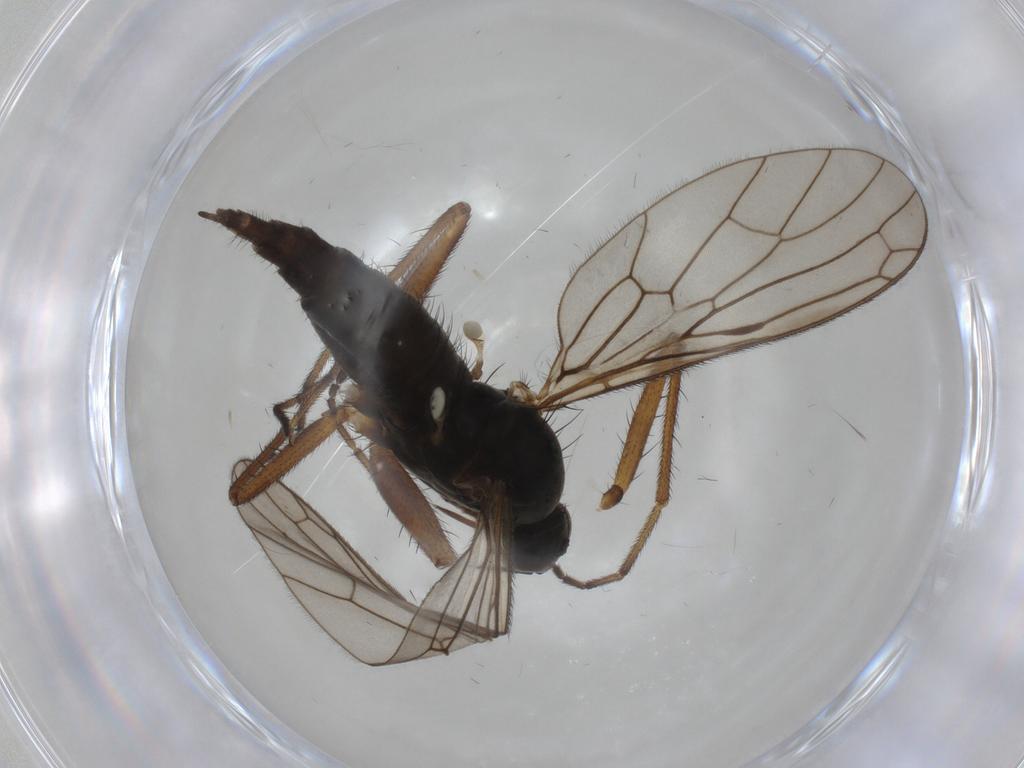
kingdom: Animalia
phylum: Arthropoda
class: Insecta
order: Diptera
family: Empididae
